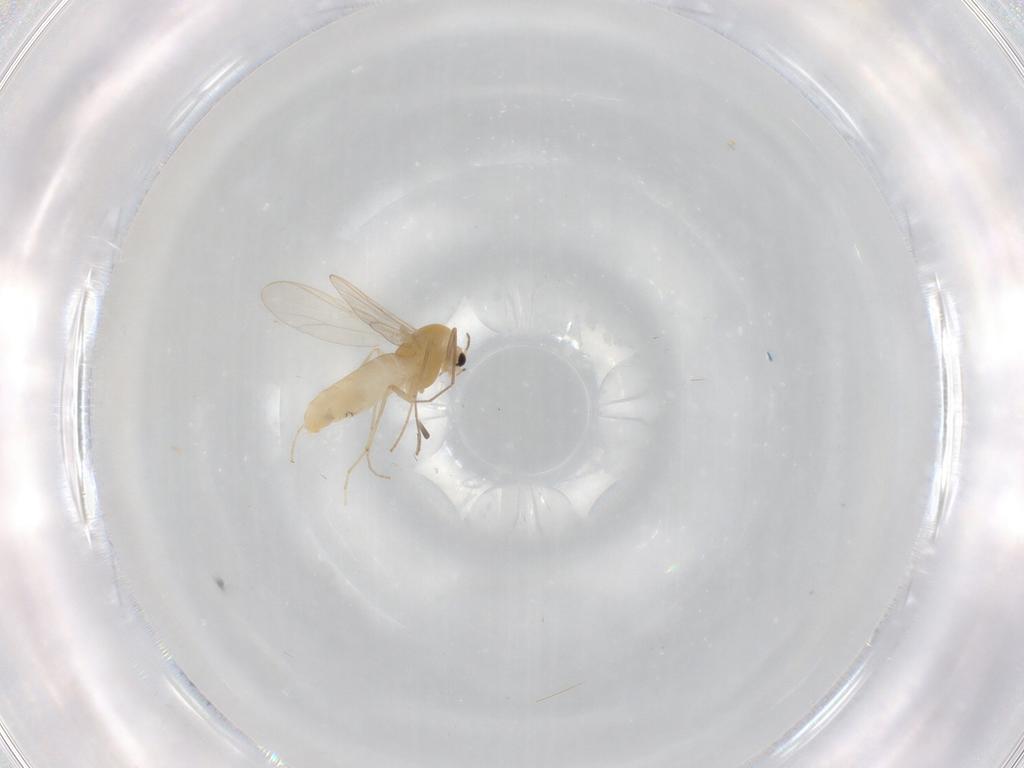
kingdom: Animalia
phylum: Arthropoda
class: Insecta
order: Diptera
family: Chironomidae
